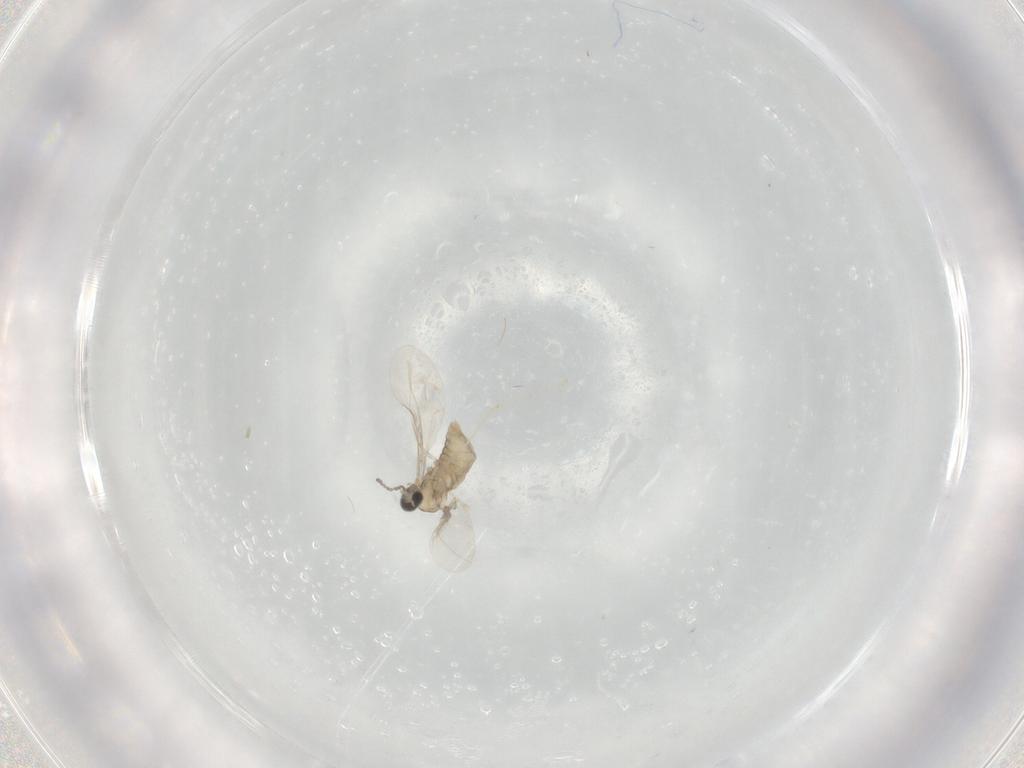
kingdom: Animalia
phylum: Arthropoda
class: Insecta
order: Diptera
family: Cecidomyiidae
